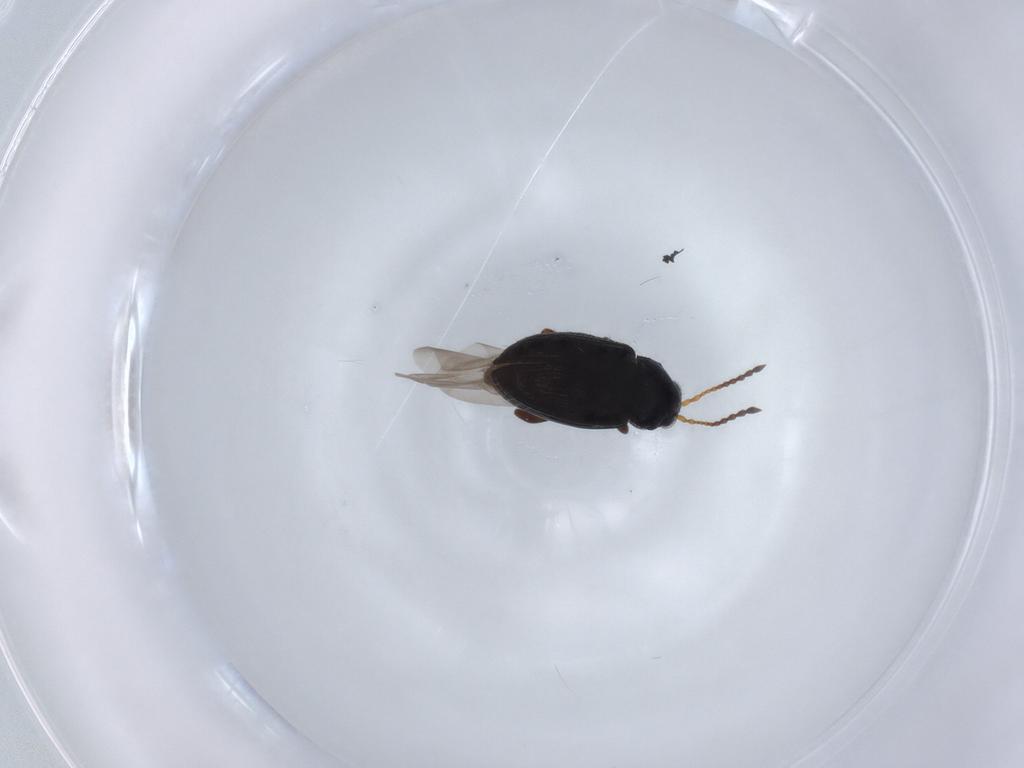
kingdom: Animalia
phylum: Arthropoda
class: Insecta
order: Coleoptera
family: Chrysomelidae
